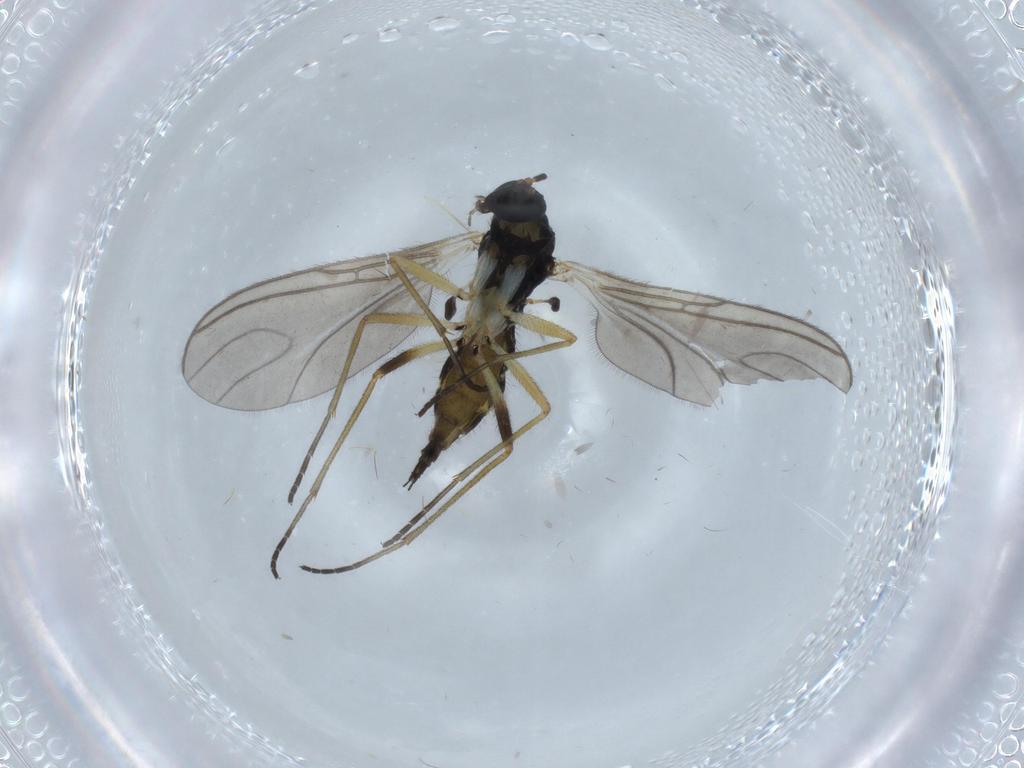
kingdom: Animalia
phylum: Arthropoda
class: Insecta
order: Diptera
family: Sciaridae
